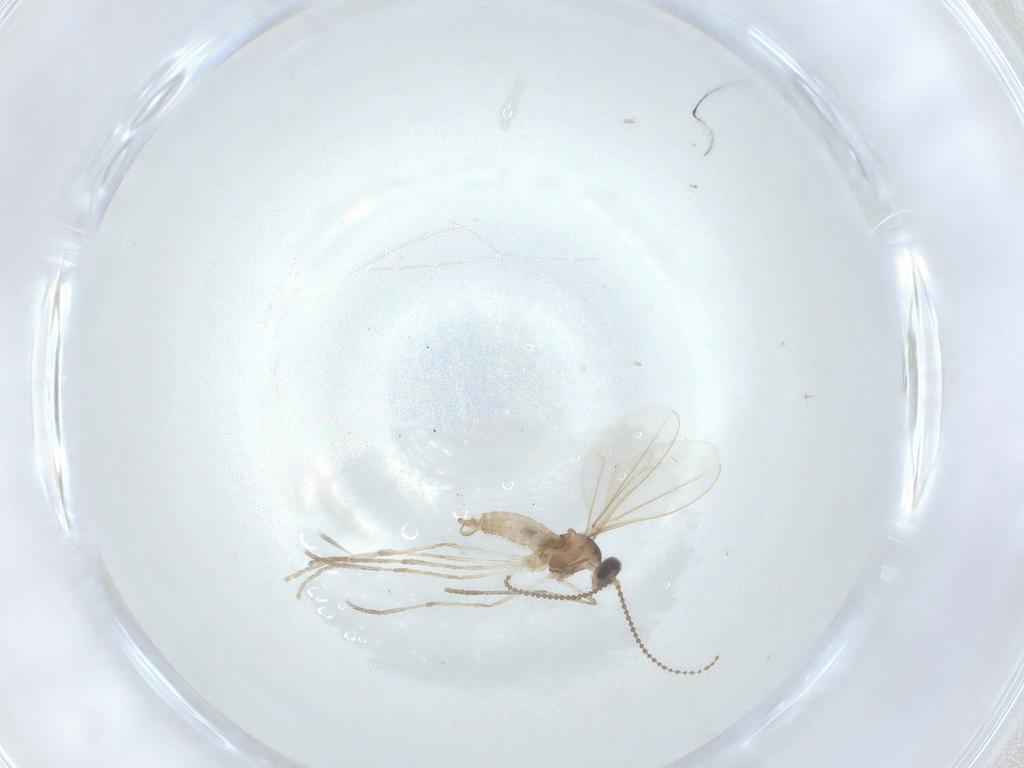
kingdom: Animalia
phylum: Arthropoda
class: Insecta
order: Diptera
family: Cecidomyiidae
